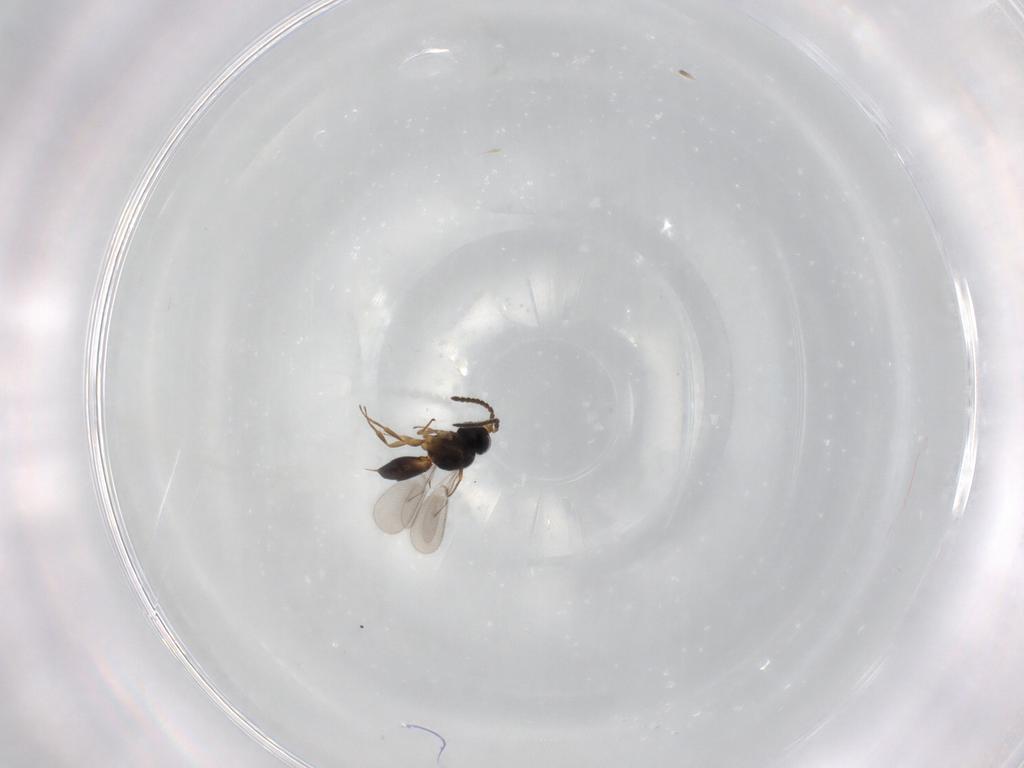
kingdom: Animalia
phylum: Arthropoda
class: Insecta
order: Hymenoptera
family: Scelionidae
